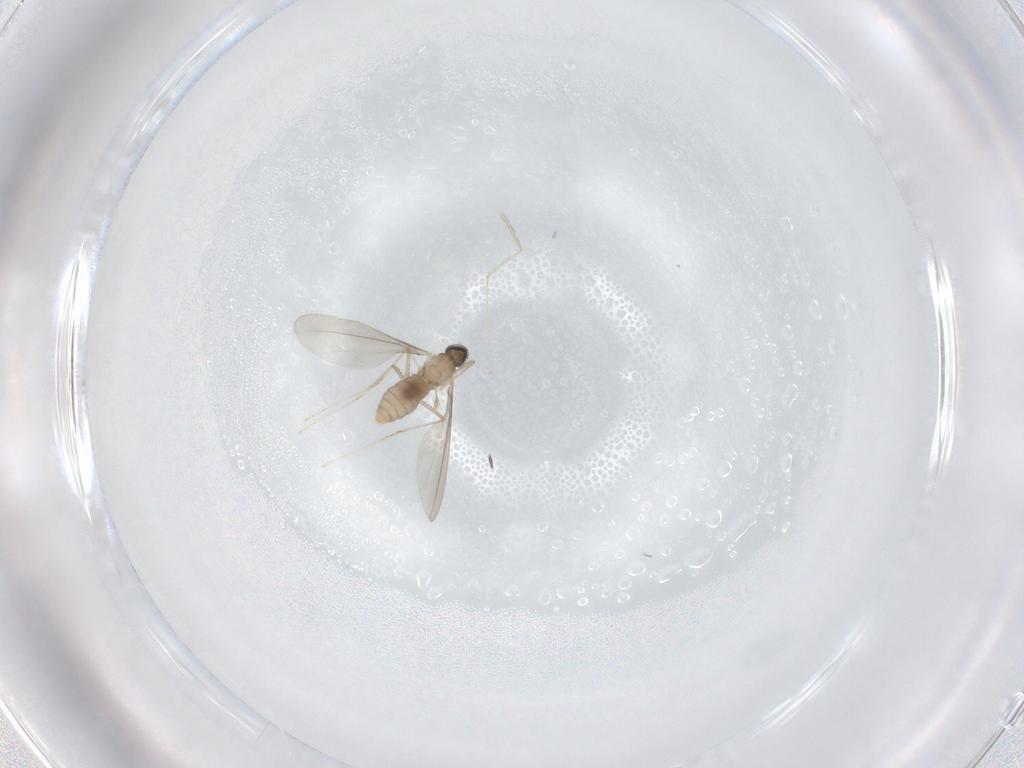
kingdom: Animalia
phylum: Arthropoda
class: Insecta
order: Diptera
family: Cecidomyiidae
